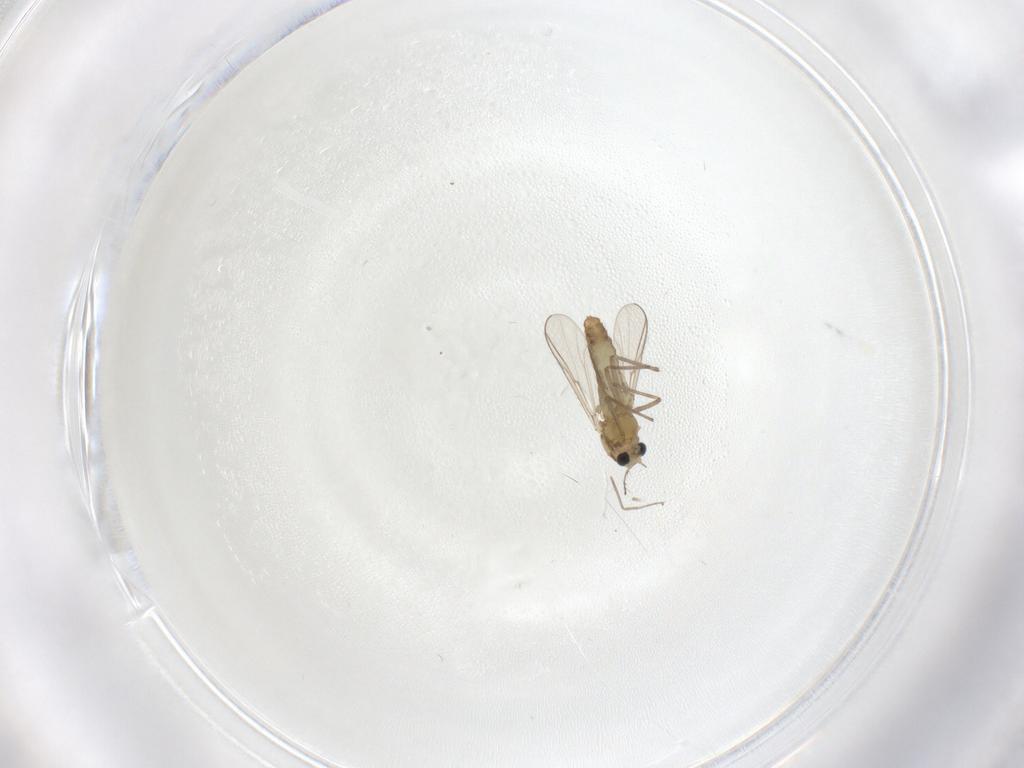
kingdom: Animalia
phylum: Arthropoda
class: Insecta
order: Diptera
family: Chironomidae
